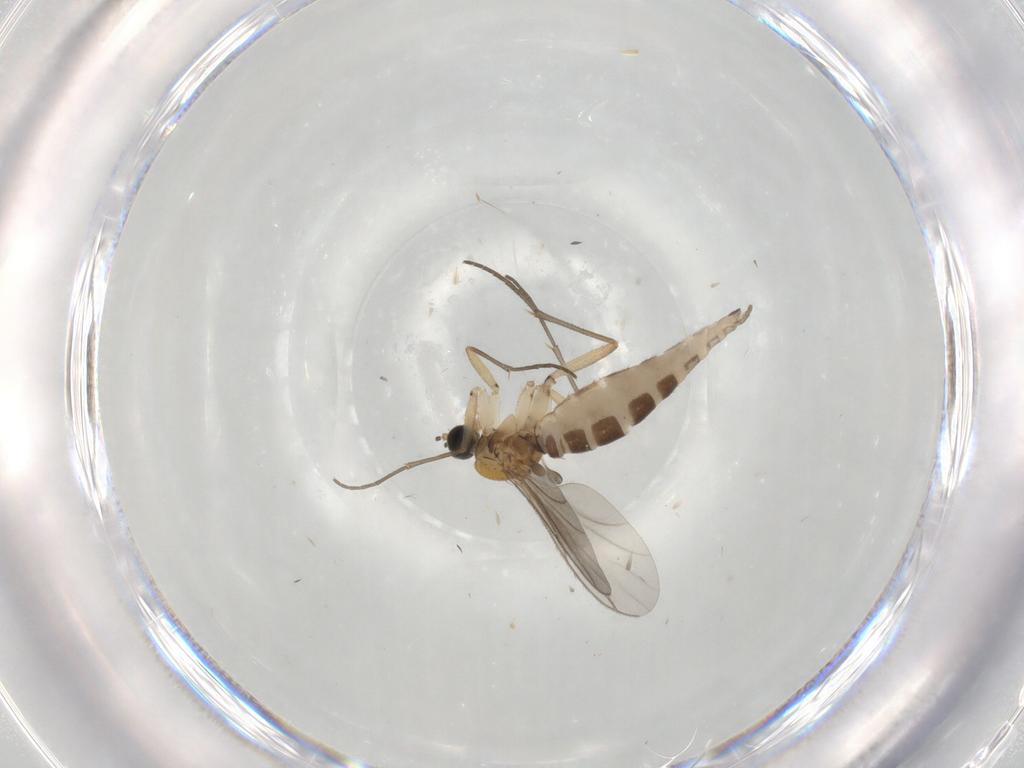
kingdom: Animalia
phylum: Arthropoda
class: Insecta
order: Diptera
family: Sciaridae
